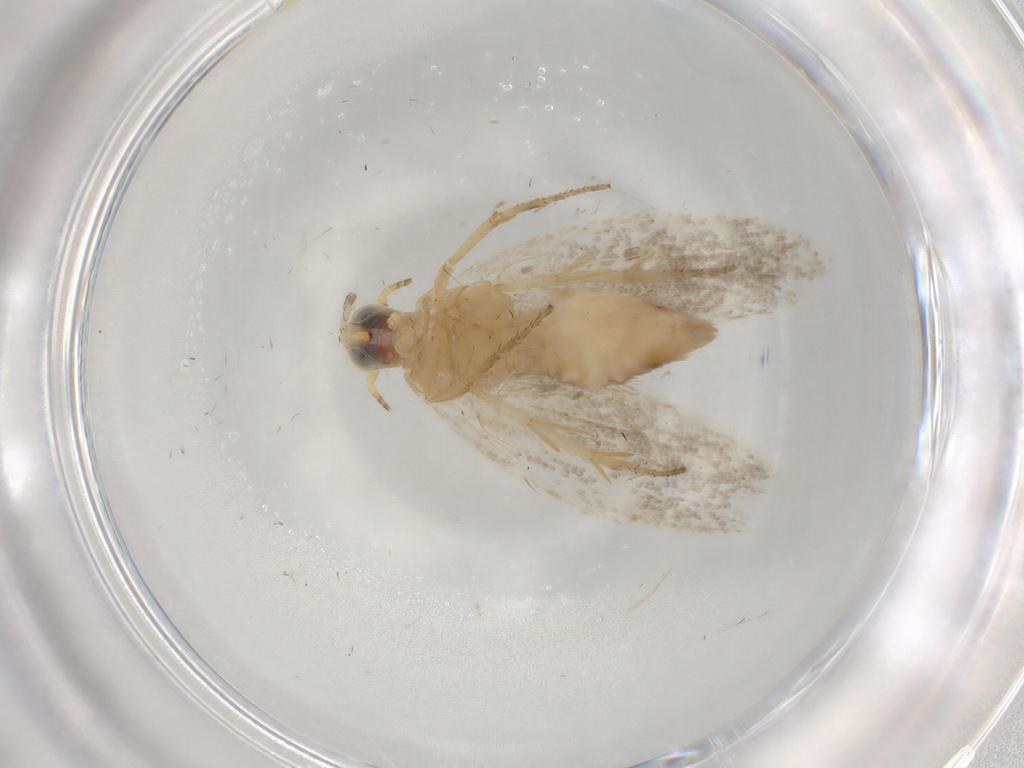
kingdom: Animalia
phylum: Arthropoda
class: Insecta
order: Lepidoptera
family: Plutellidae
